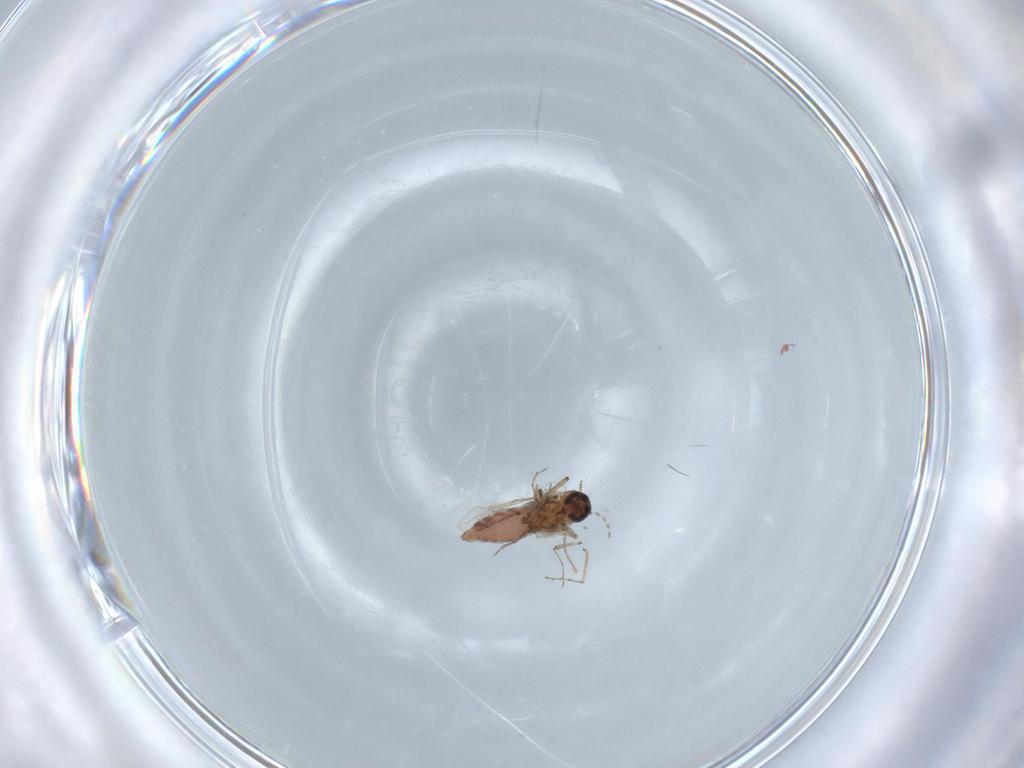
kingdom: Animalia
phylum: Arthropoda
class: Insecta
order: Diptera
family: Ceratopogonidae
